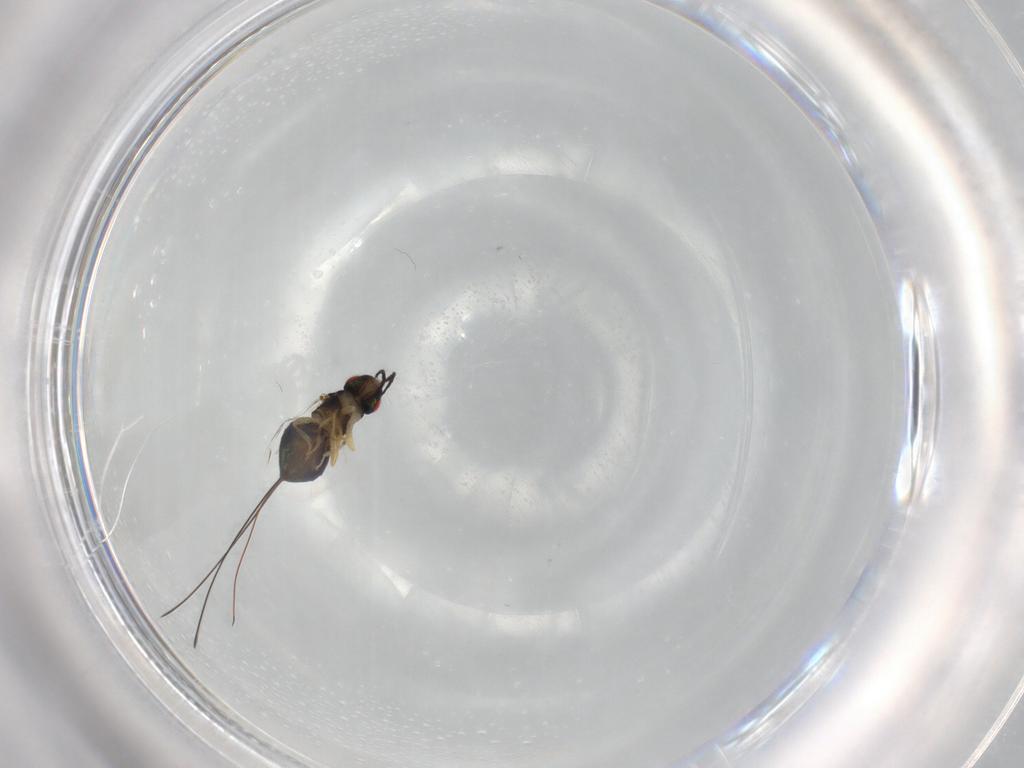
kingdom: Animalia
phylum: Arthropoda
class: Insecta
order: Hymenoptera
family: Pteromalidae
